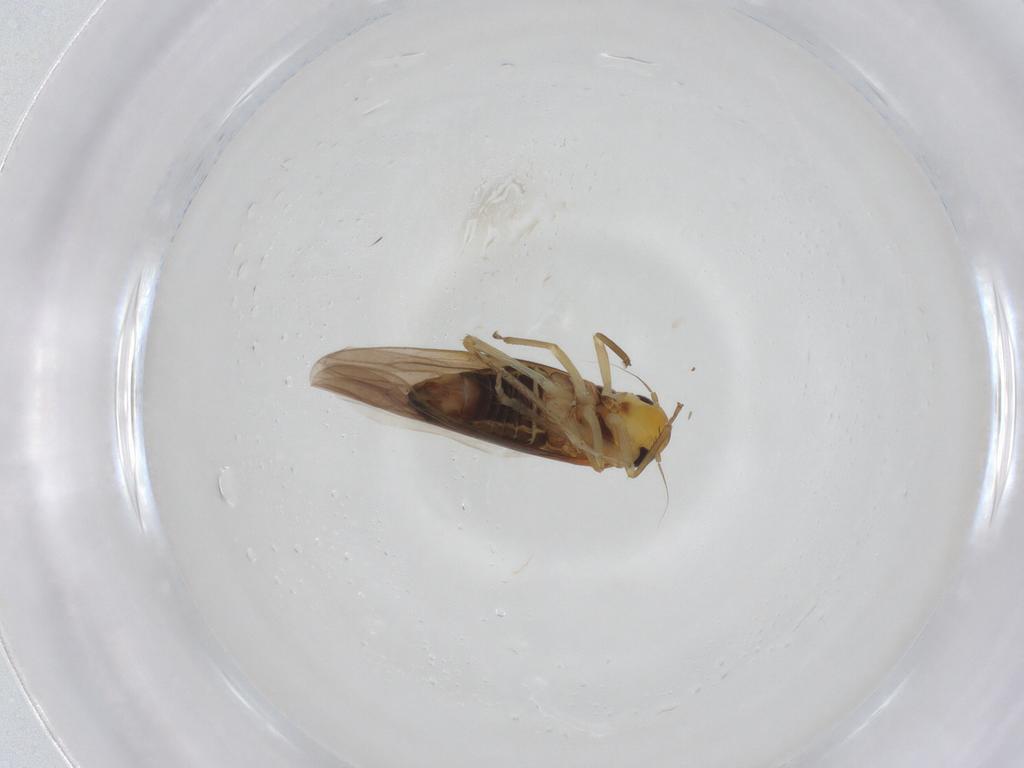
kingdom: Animalia
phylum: Arthropoda
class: Insecta
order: Hemiptera
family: Cicadellidae
